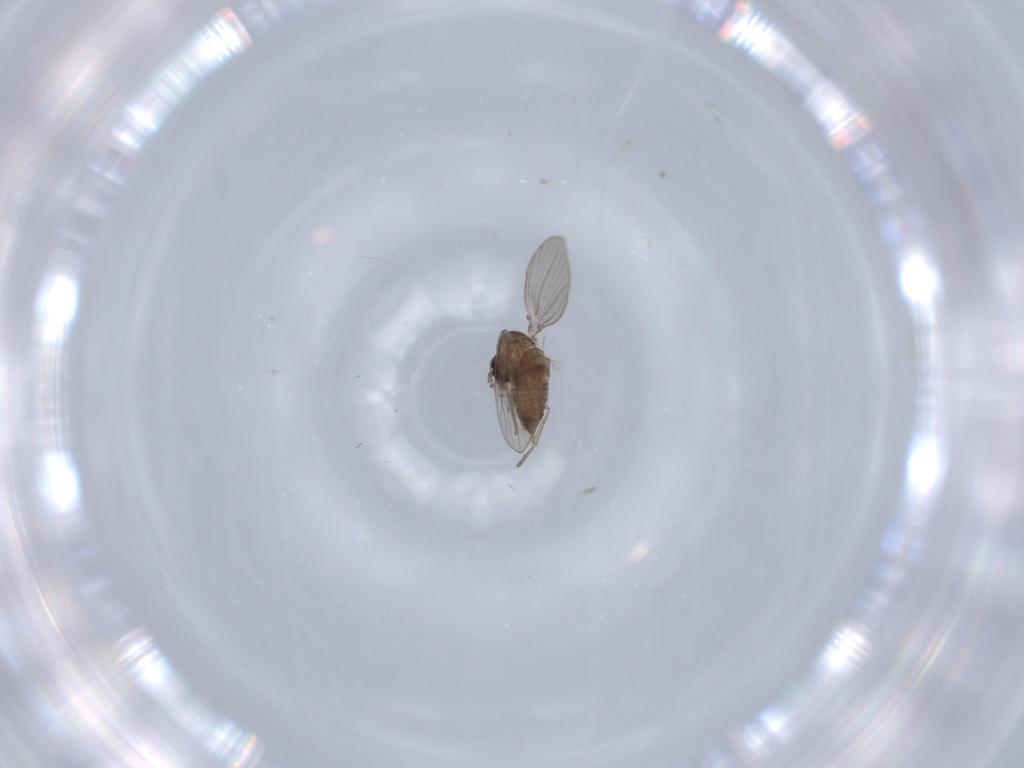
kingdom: Animalia
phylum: Arthropoda
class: Insecta
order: Diptera
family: Psychodidae
